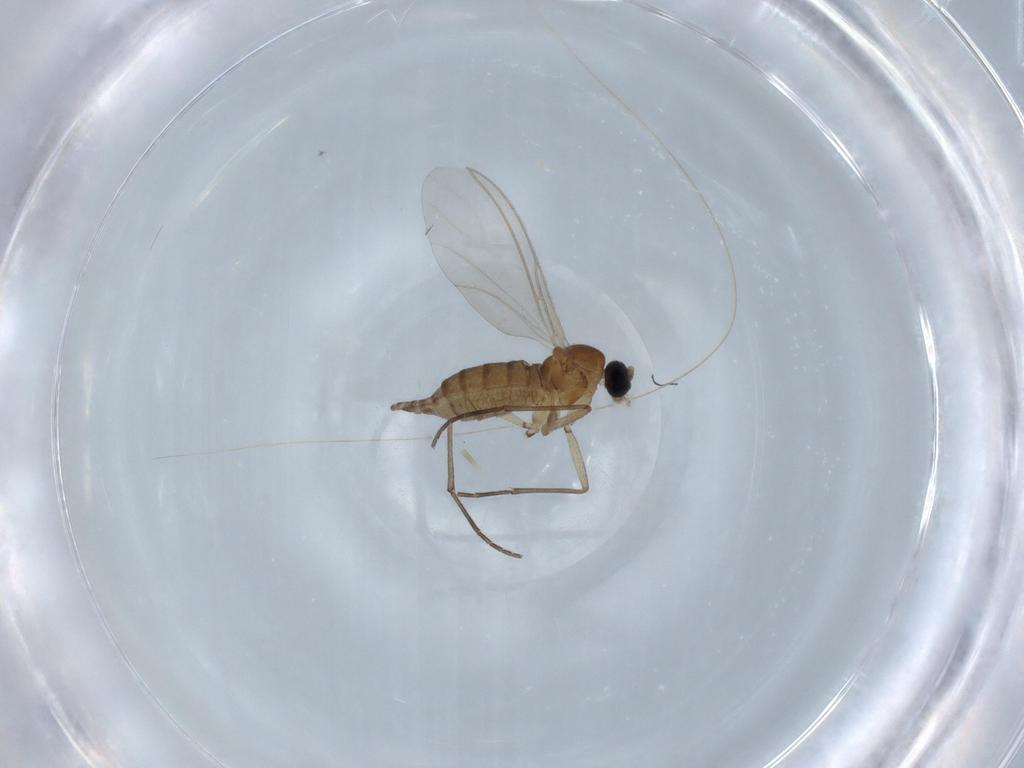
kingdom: Animalia
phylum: Arthropoda
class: Insecta
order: Diptera
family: Sciaridae
